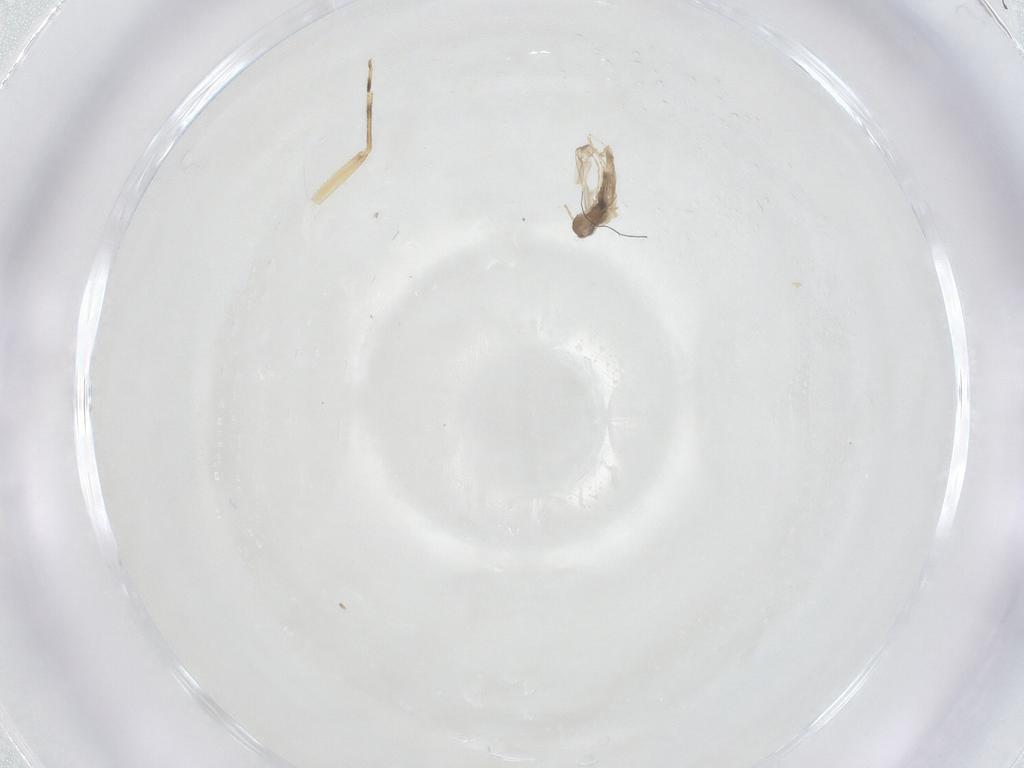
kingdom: Animalia
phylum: Arthropoda
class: Insecta
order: Psocodea
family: Epipsocidae
